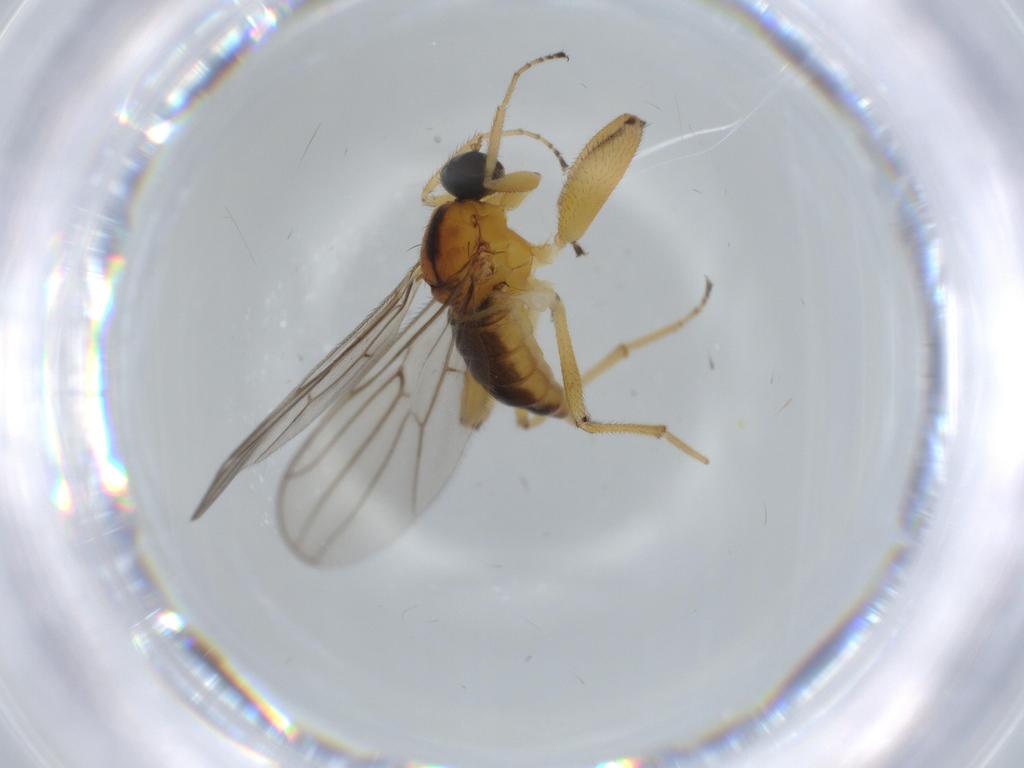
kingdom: Animalia
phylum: Arthropoda
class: Insecta
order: Diptera
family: Hybotidae
